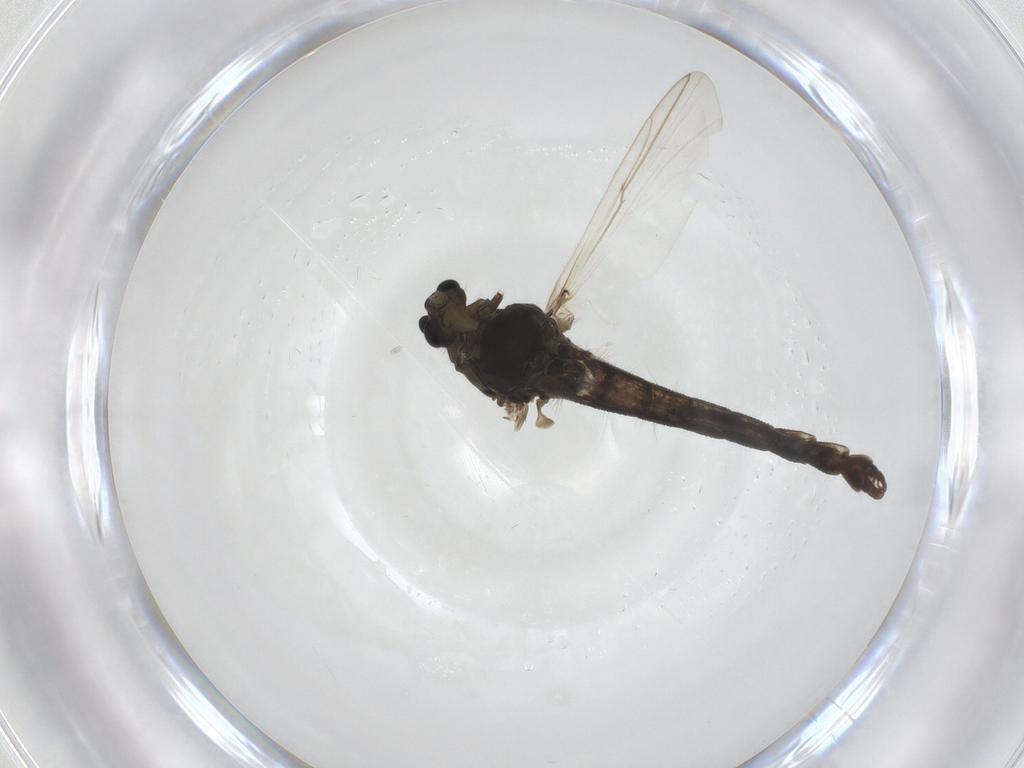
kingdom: Animalia
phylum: Arthropoda
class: Insecta
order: Diptera
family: Chironomidae
